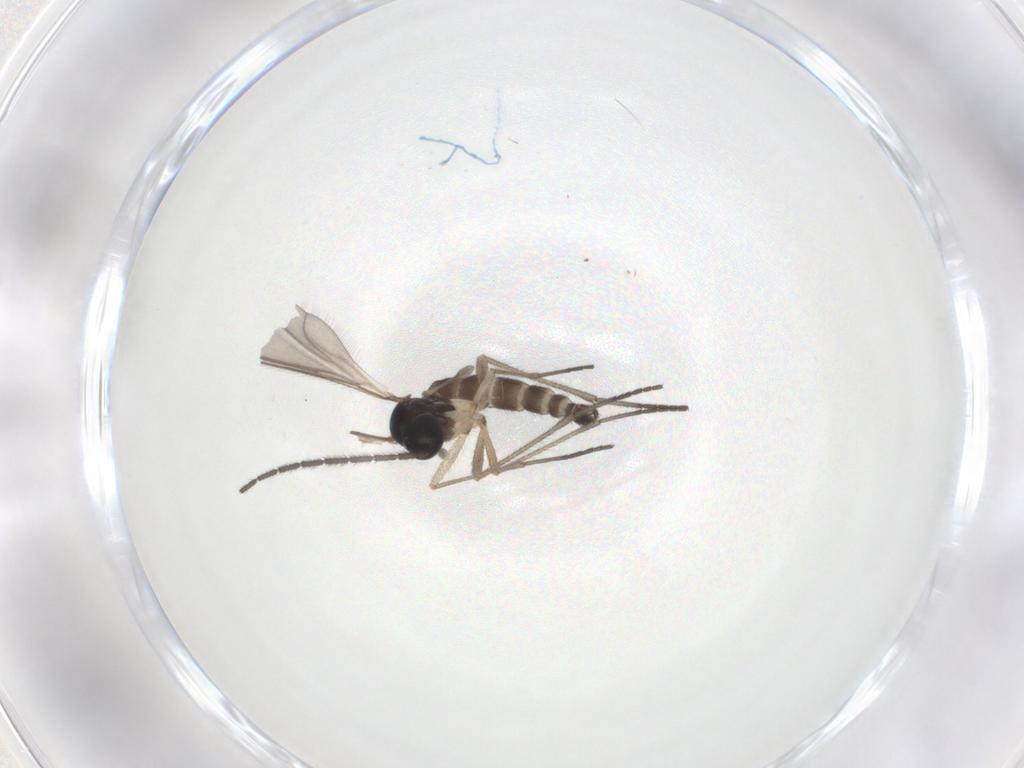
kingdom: Animalia
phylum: Arthropoda
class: Insecta
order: Diptera
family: Sciaridae
